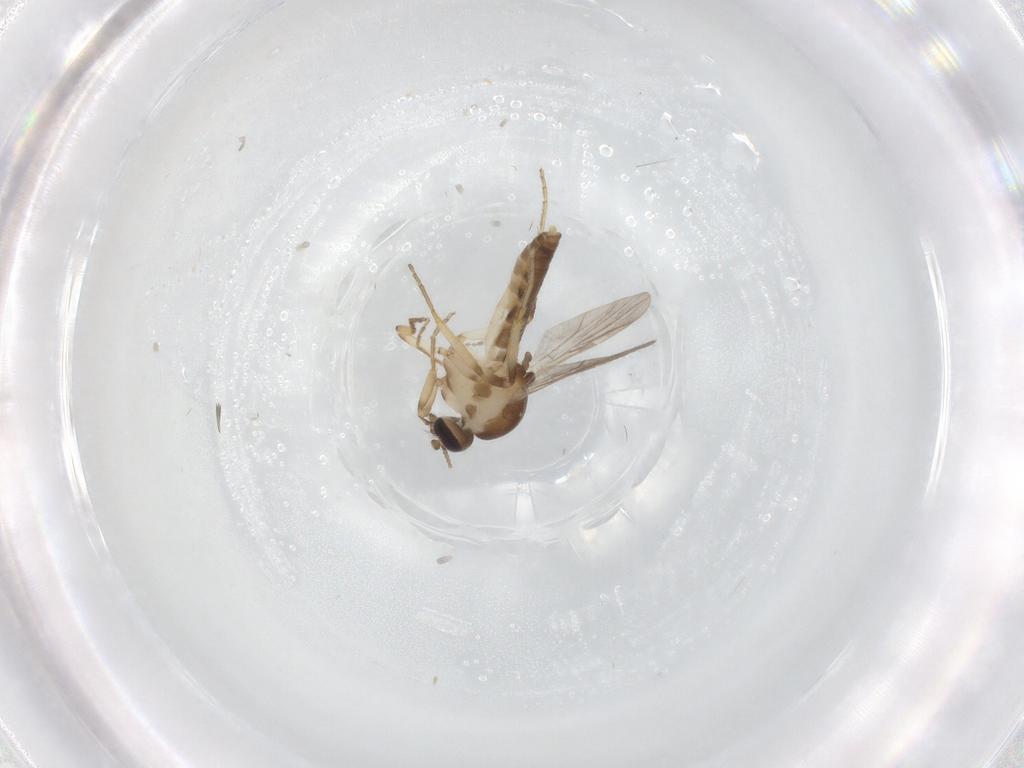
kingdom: Animalia
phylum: Arthropoda
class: Insecta
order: Diptera
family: Ceratopogonidae
